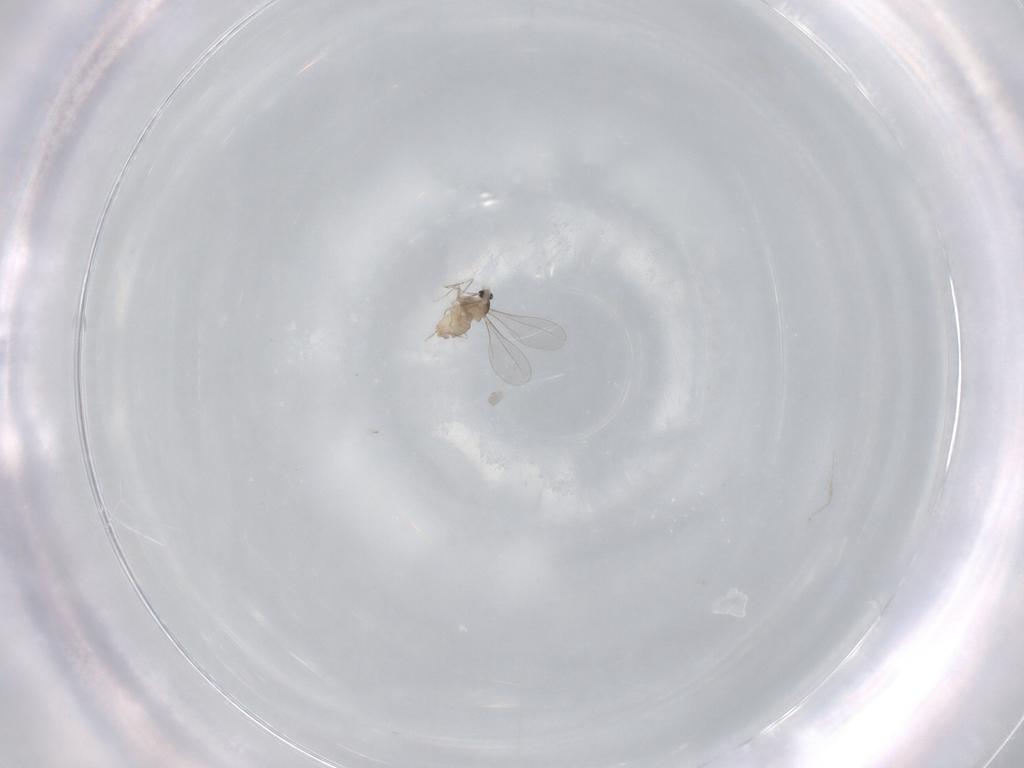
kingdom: Animalia
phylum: Arthropoda
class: Insecta
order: Diptera
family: Cecidomyiidae
